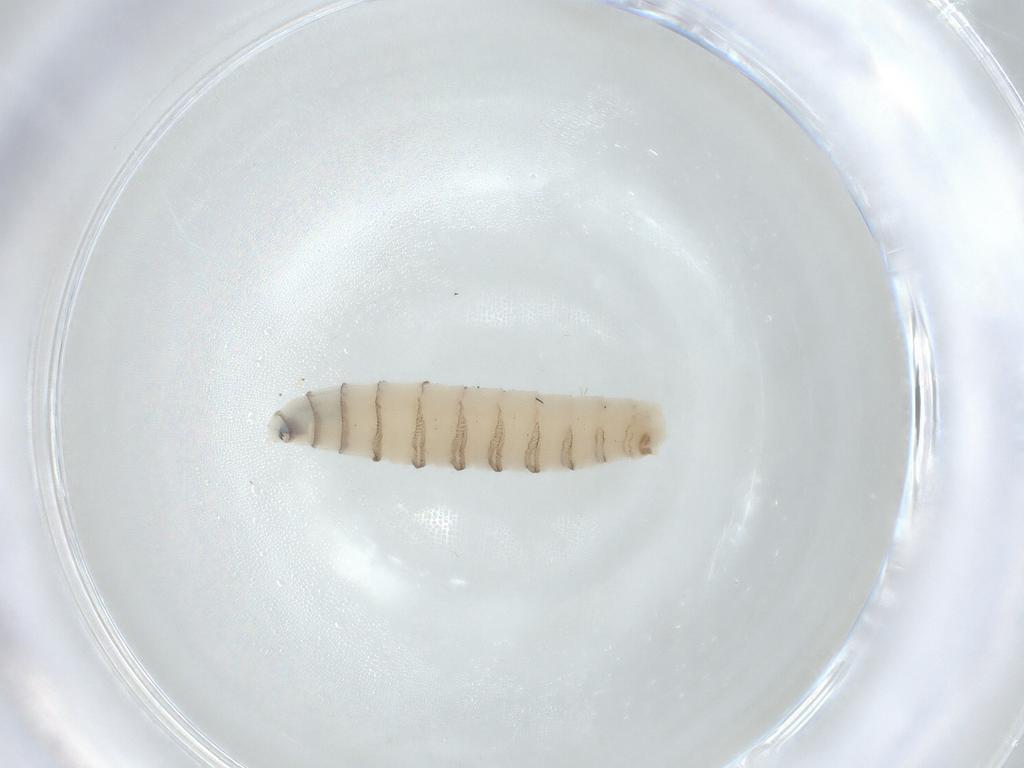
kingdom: Animalia
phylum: Arthropoda
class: Insecta
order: Diptera
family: Sarcophagidae
